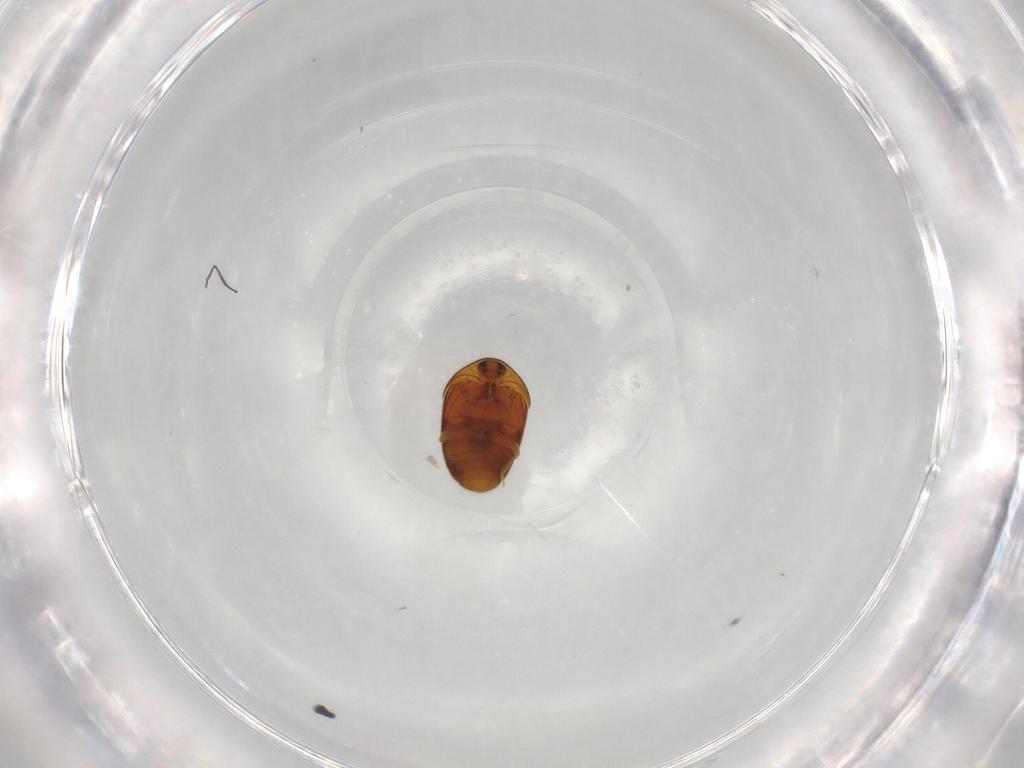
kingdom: Animalia
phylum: Arthropoda
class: Insecta
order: Coleoptera
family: Corylophidae
